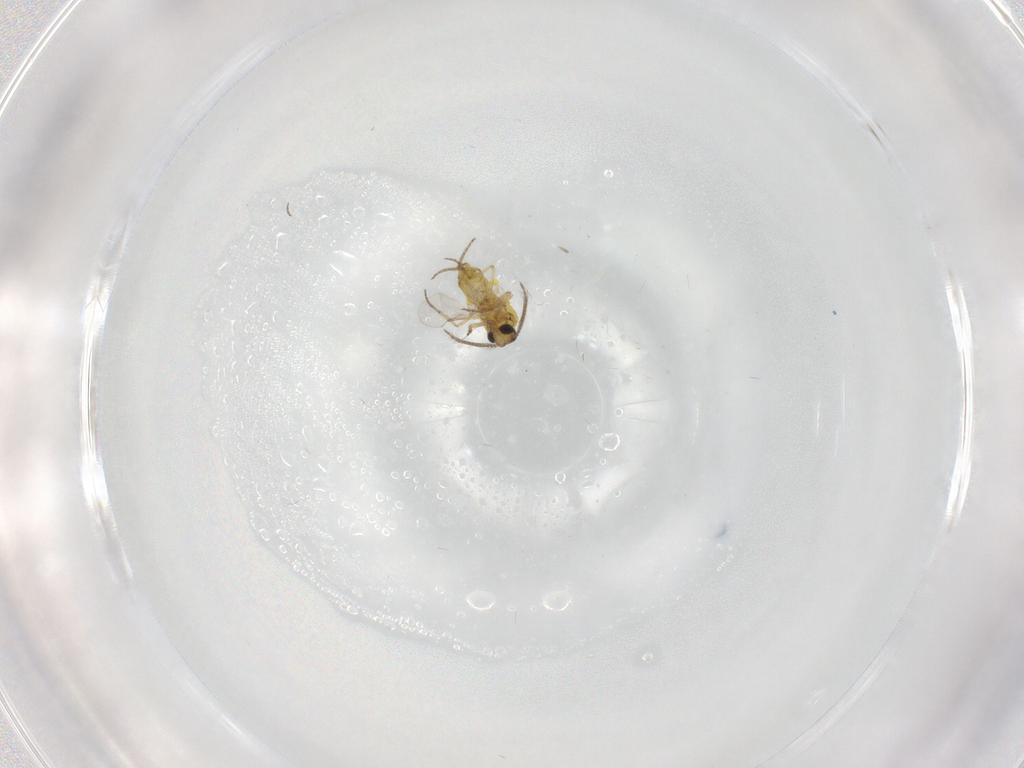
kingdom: Animalia
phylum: Arthropoda
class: Insecta
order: Diptera
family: Ceratopogonidae
